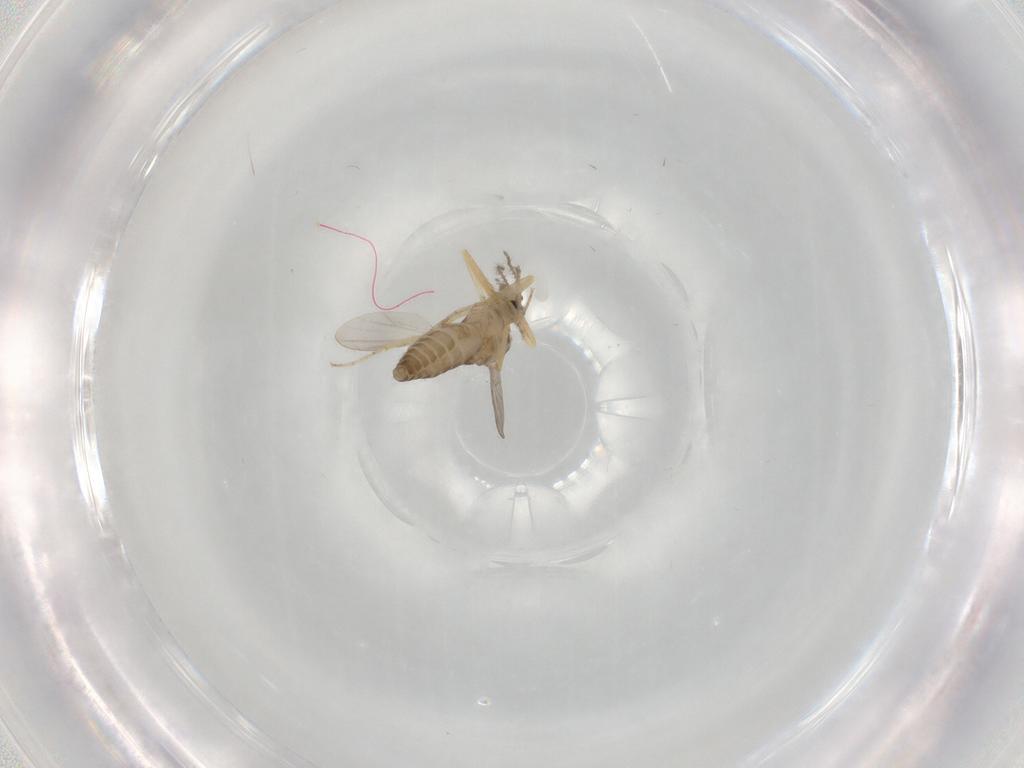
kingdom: Animalia
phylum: Arthropoda
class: Insecta
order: Diptera
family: Ceratopogonidae
